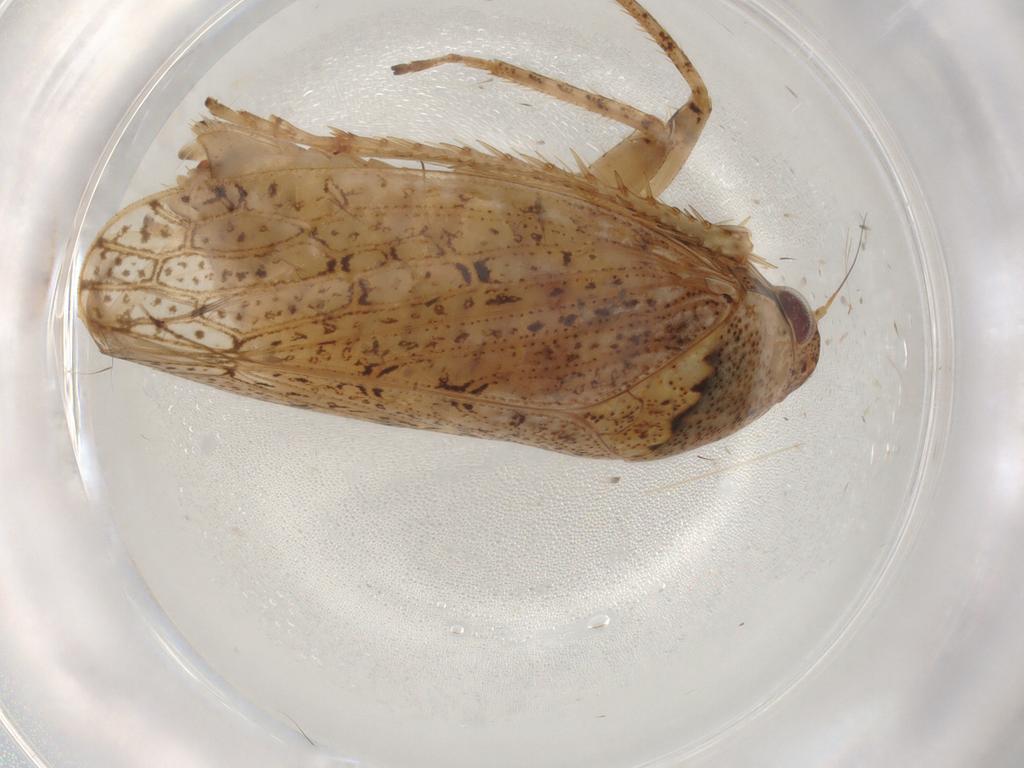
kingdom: Animalia
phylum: Arthropoda
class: Insecta
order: Hemiptera
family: Cicadellidae
